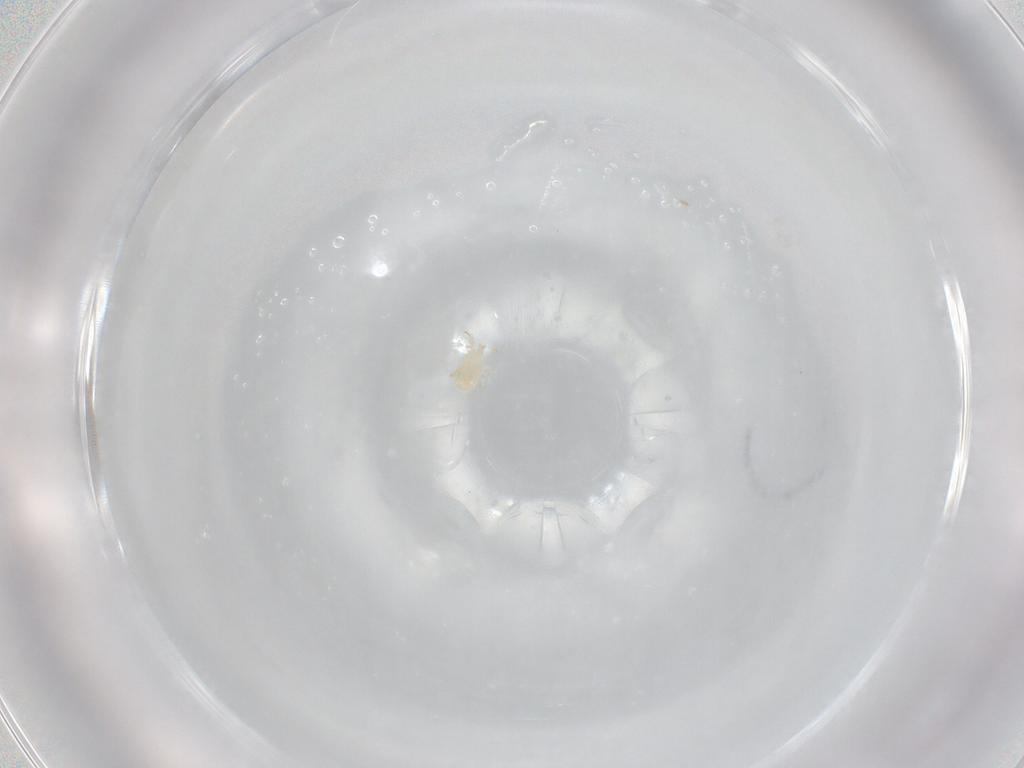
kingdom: Animalia
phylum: Arthropoda
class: Arachnida
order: Mesostigmata
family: Phytoseiidae
